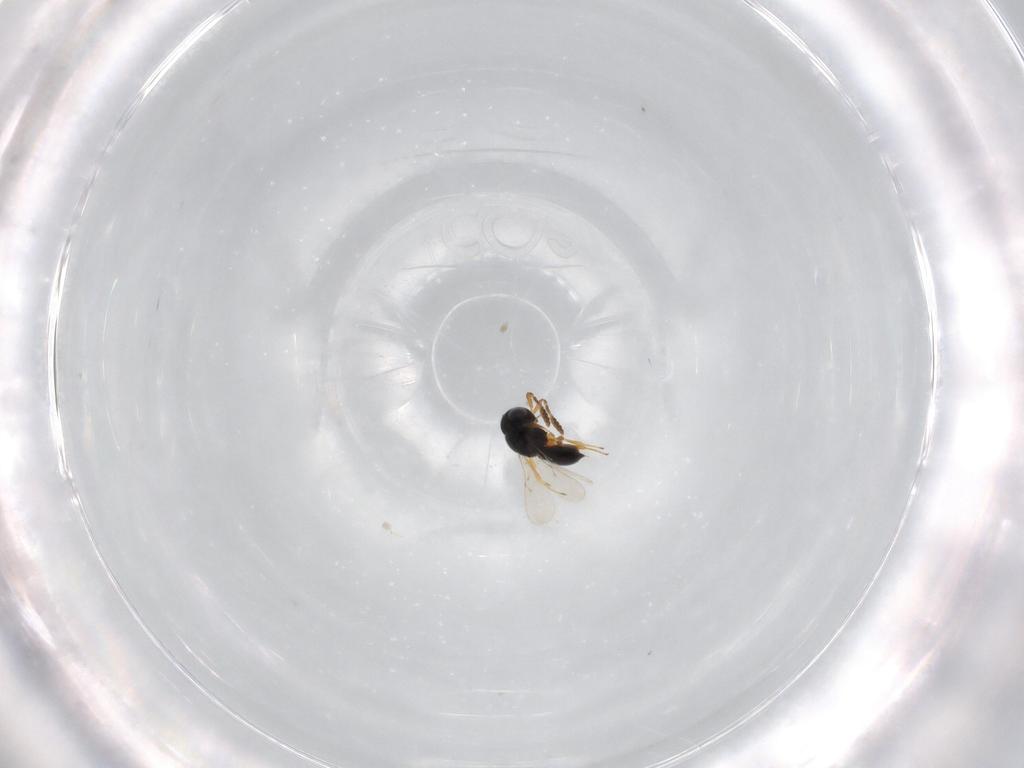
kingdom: Animalia
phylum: Arthropoda
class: Insecta
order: Hymenoptera
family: Scelionidae
